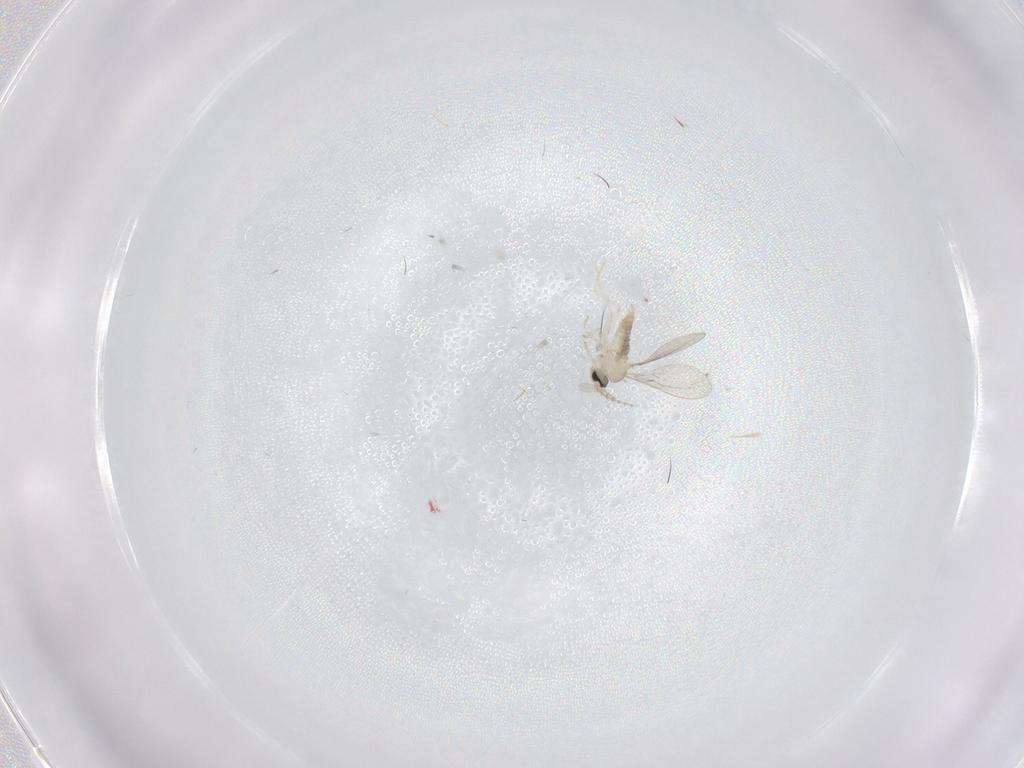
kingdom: Animalia
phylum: Arthropoda
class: Insecta
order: Diptera
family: Cecidomyiidae
